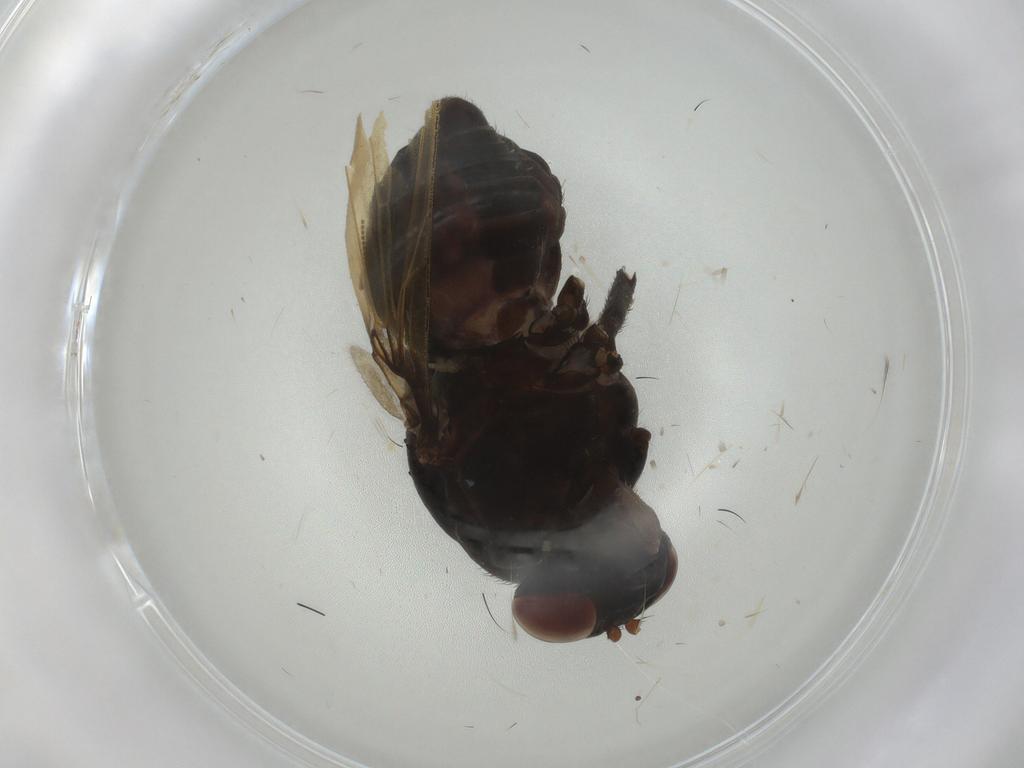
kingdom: Animalia
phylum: Arthropoda
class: Insecta
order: Diptera
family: Lauxaniidae
